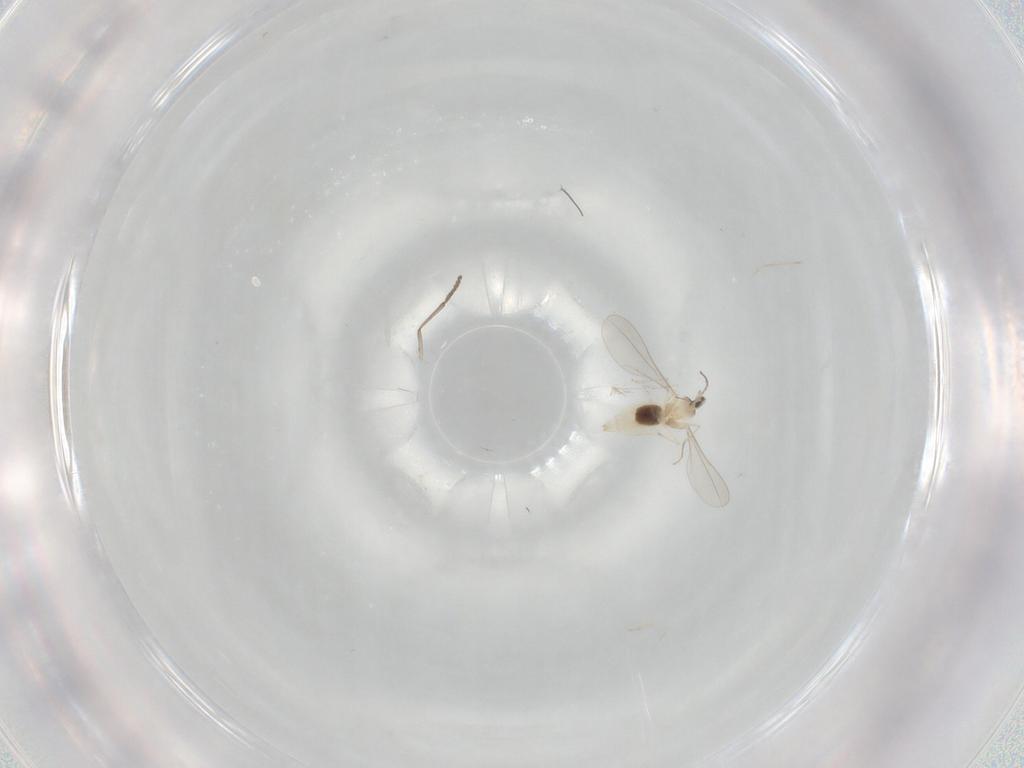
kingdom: Animalia
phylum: Arthropoda
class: Insecta
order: Diptera
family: Cecidomyiidae
